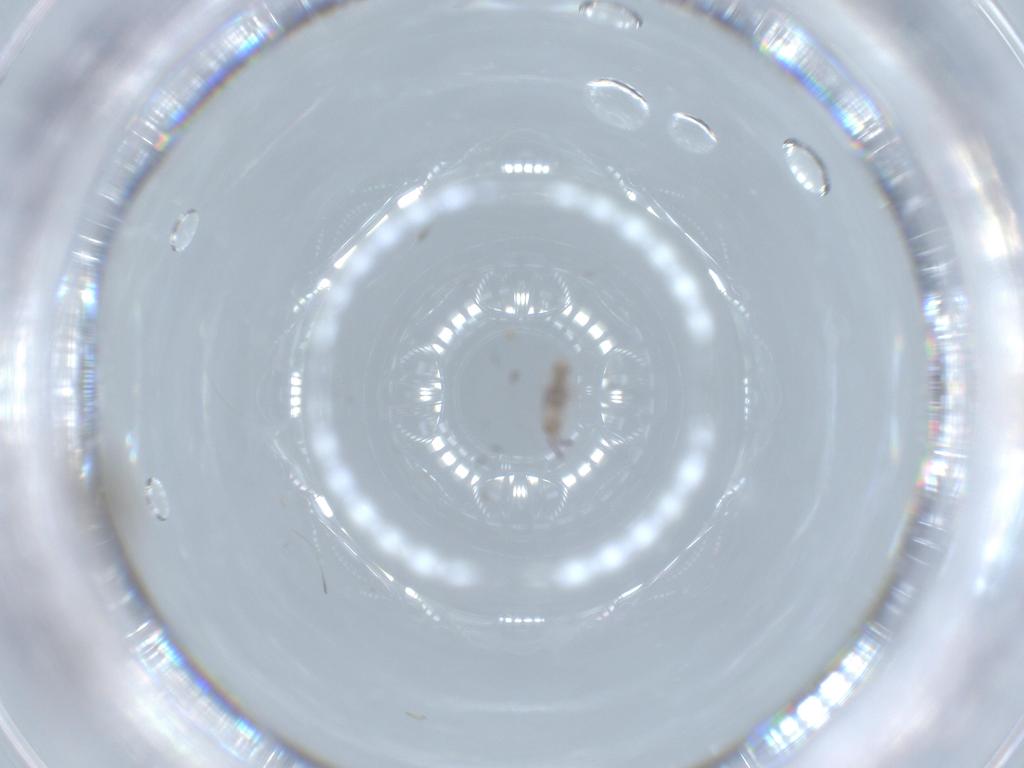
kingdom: Animalia
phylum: Arthropoda
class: Collembola
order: Entomobryomorpha
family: Entomobryidae
